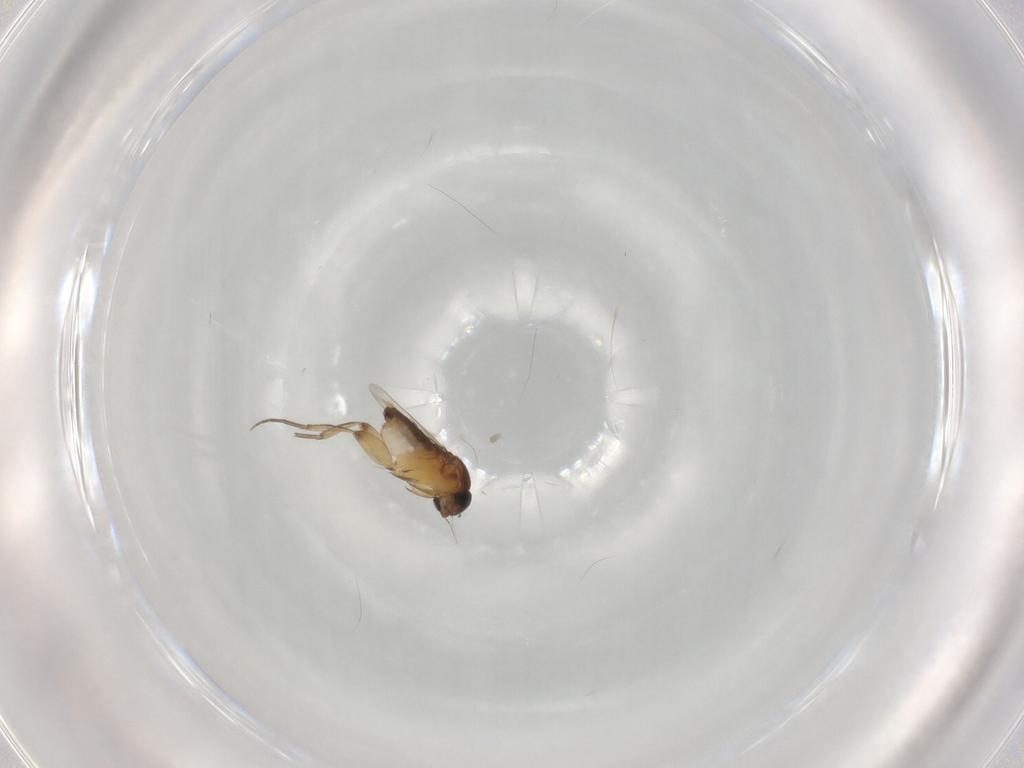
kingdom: Animalia
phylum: Arthropoda
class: Insecta
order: Diptera
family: Phoridae
